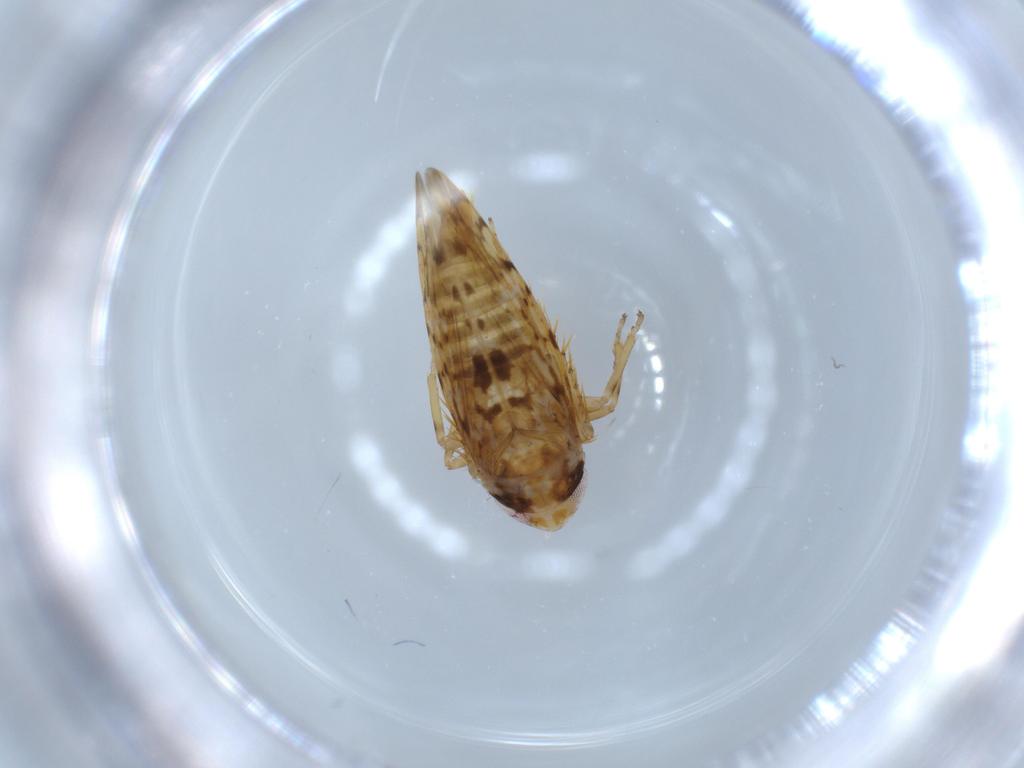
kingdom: Animalia
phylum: Arthropoda
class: Insecta
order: Hemiptera
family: Cicadellidae
